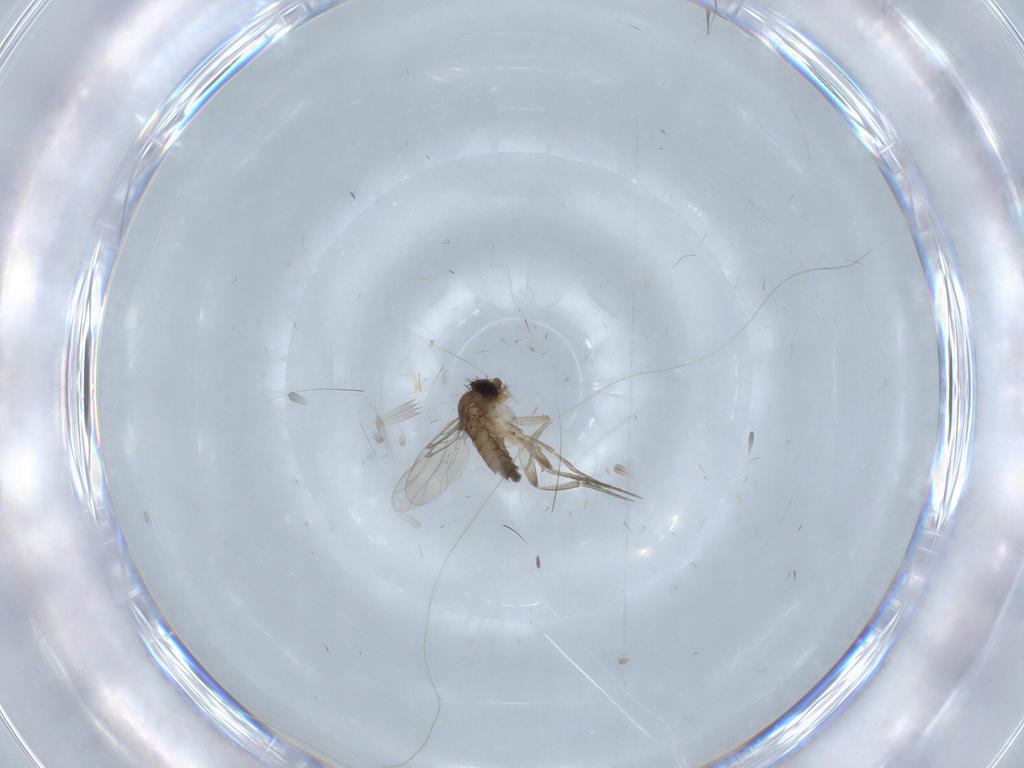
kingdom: Animalia
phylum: Arthropoda
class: Insecta
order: Diptera
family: Phoridae
